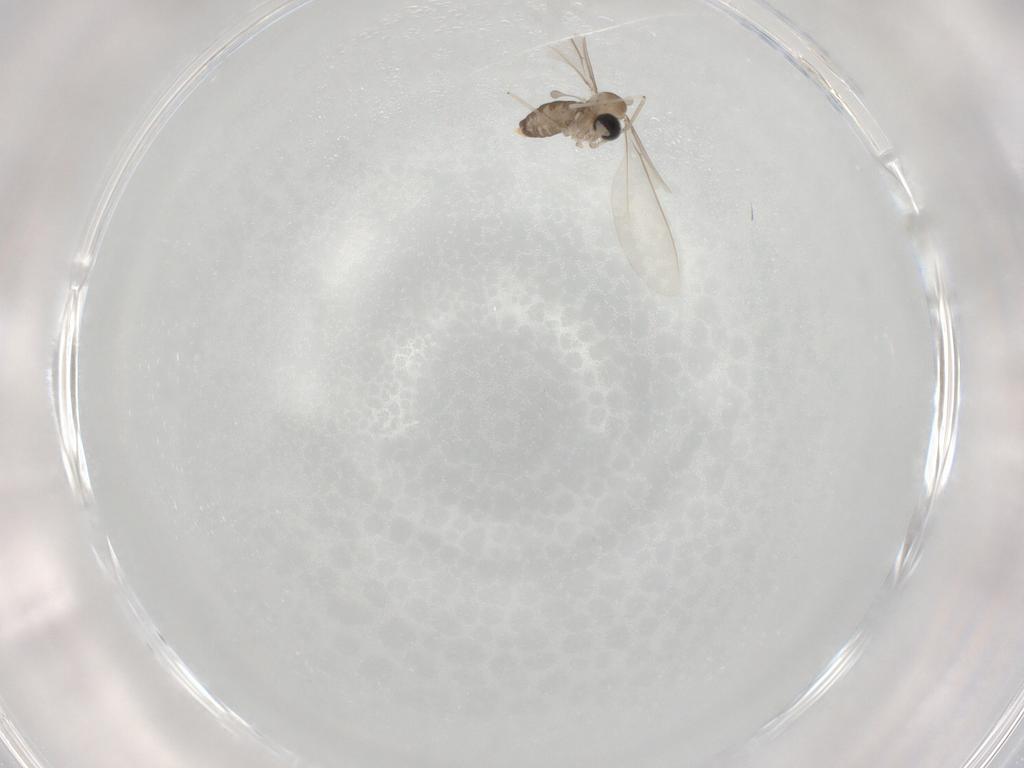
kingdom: Animalia
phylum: Arthropoda
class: Insecta
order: Diptera
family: Cecidomyiidae
